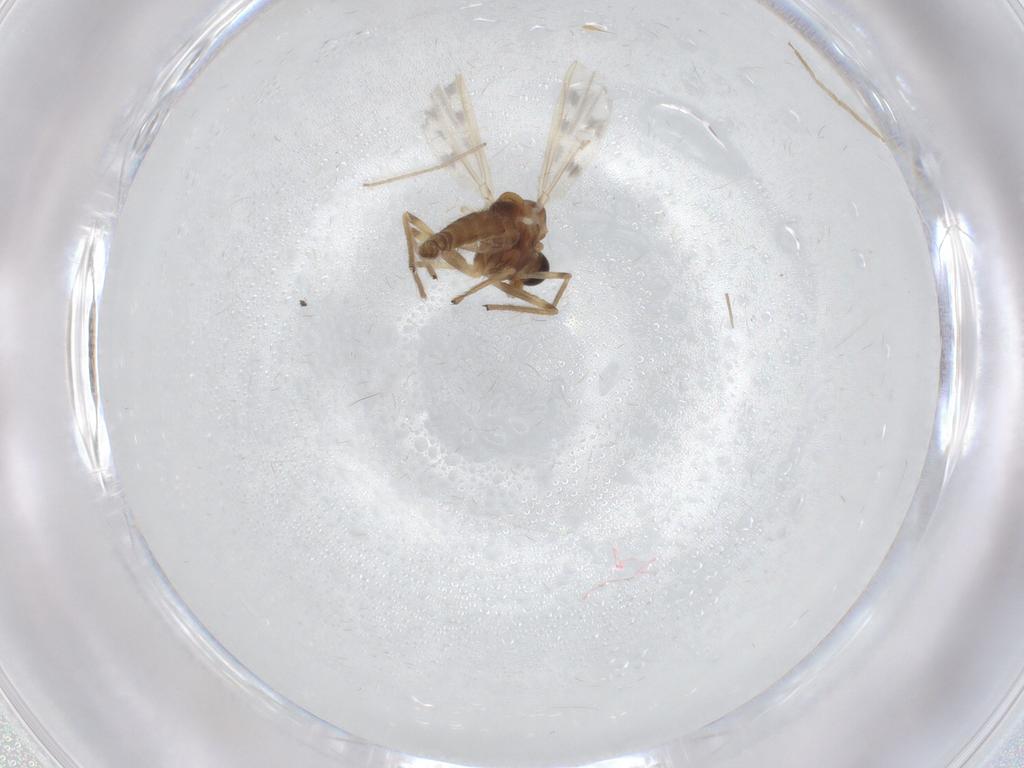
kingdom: Animalia
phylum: Arthropoda
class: Insecta
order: Diptera
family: Chironomidae
